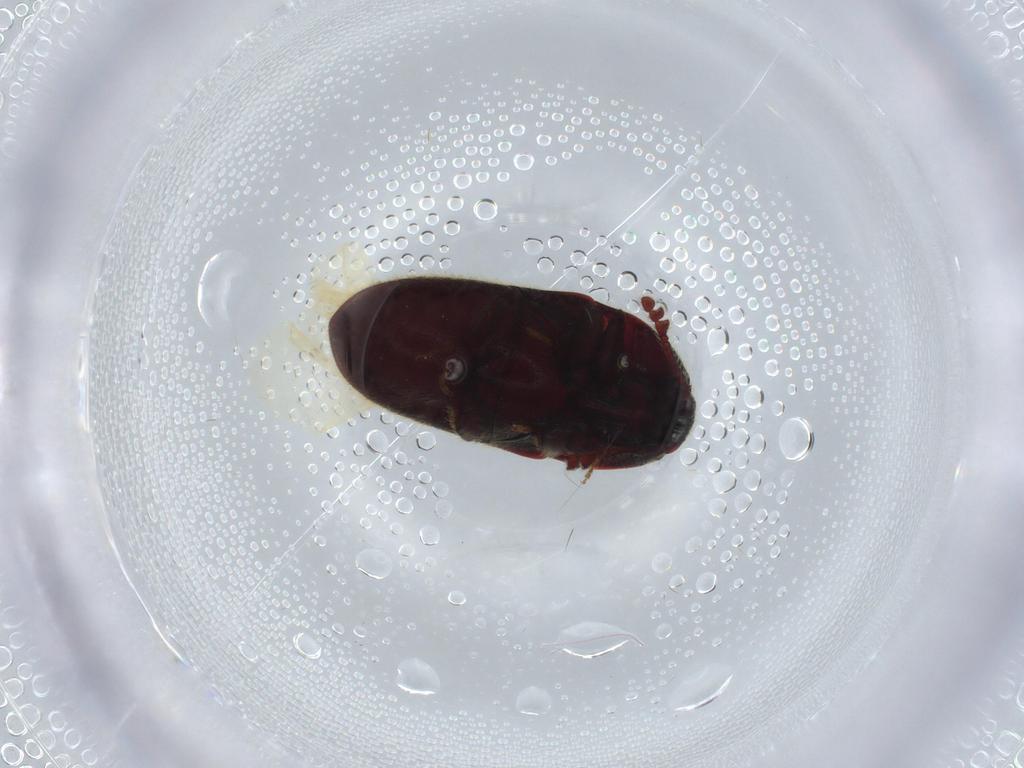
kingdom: Animalia
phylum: Arthropoda
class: Insecta
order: Coleoptera
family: Throscidae
